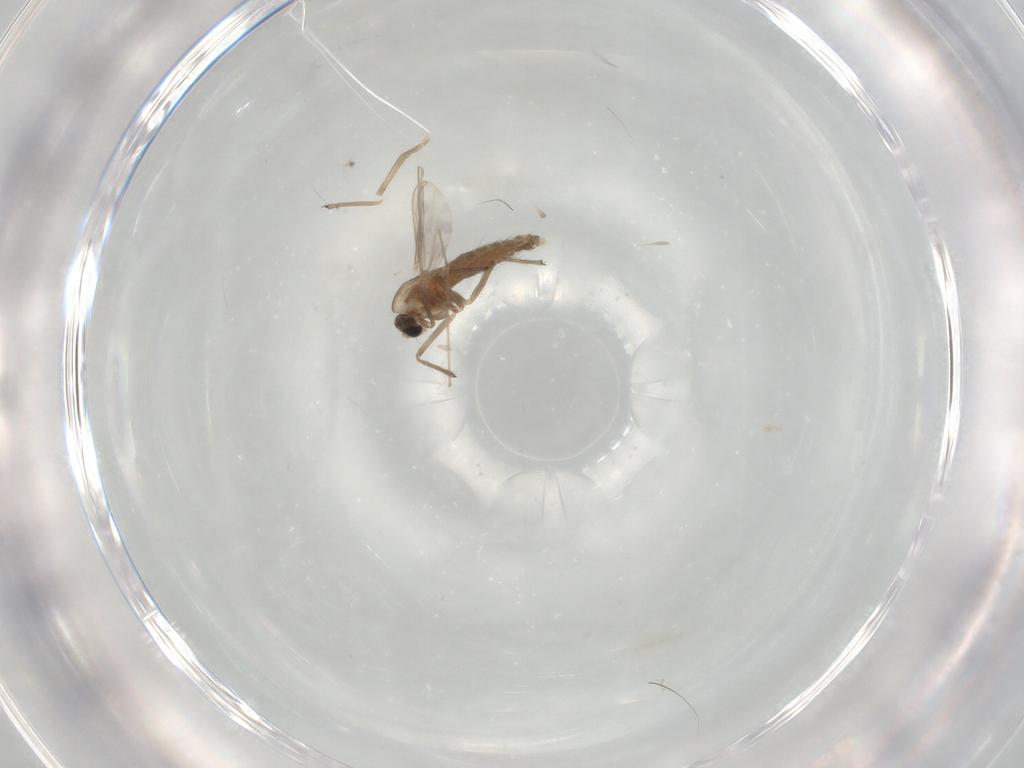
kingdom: Animalia
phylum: Arthropoda
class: Insecta
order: Diptera
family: Chironomidae
